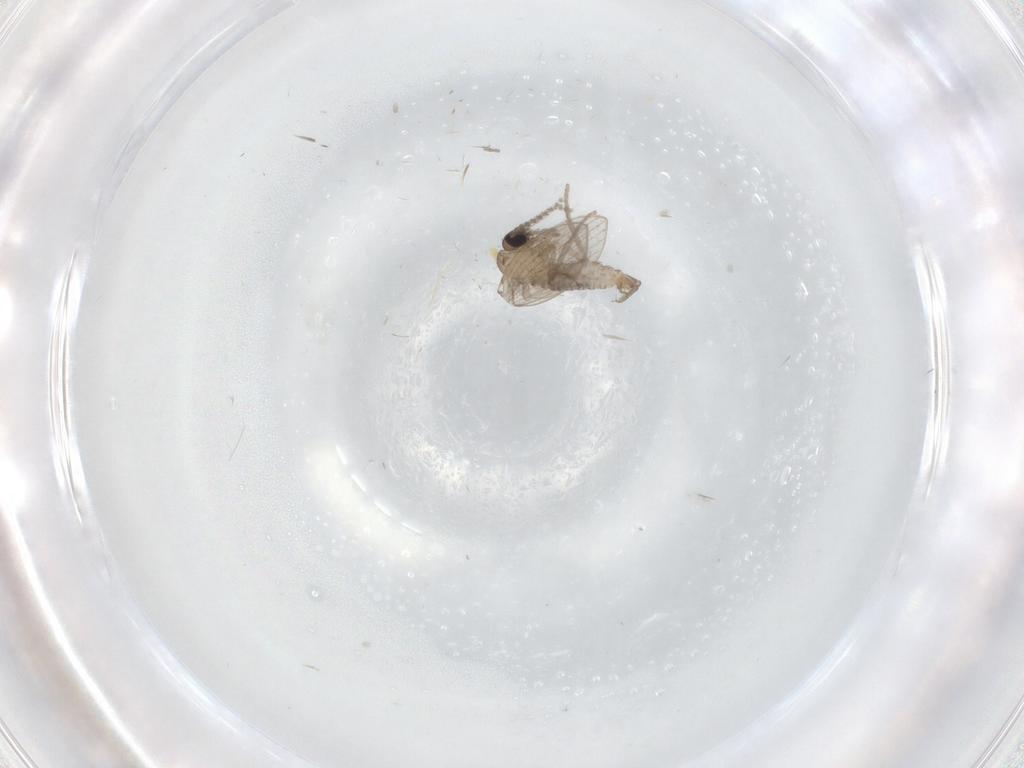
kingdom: Animalia
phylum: Arthropoda
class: Insecta
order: Diptera
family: Psychodidae
